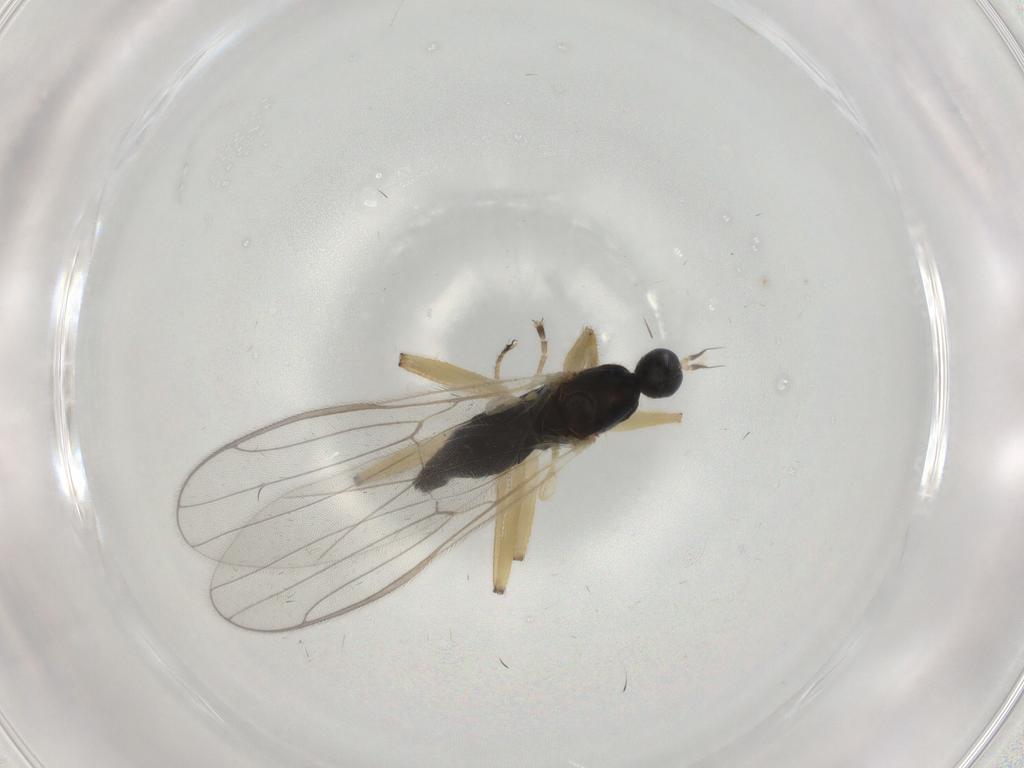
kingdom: Animalia
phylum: Arthropoda
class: Insecta
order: Diptera
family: Hybotidae
